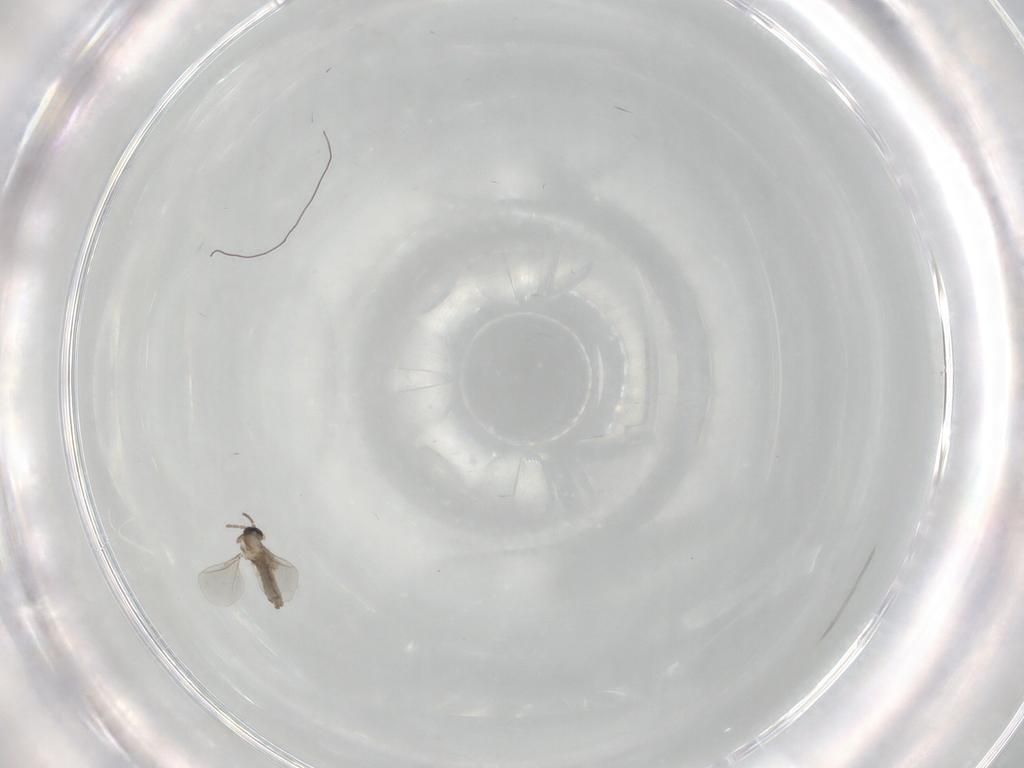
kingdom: Animalia
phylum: Arthropoda
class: Insecta
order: Diptera
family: Cecidomyiidae
